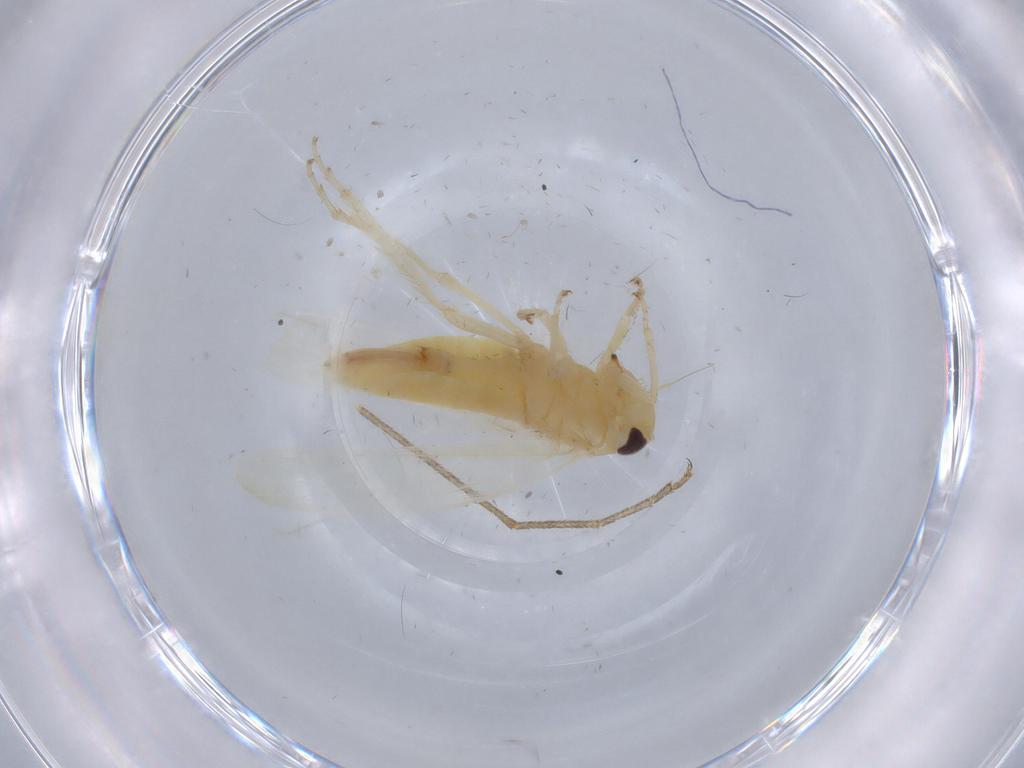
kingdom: Animalia
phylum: Arthropoda
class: Insecta
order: Hemiptera
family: Cicadellidae
